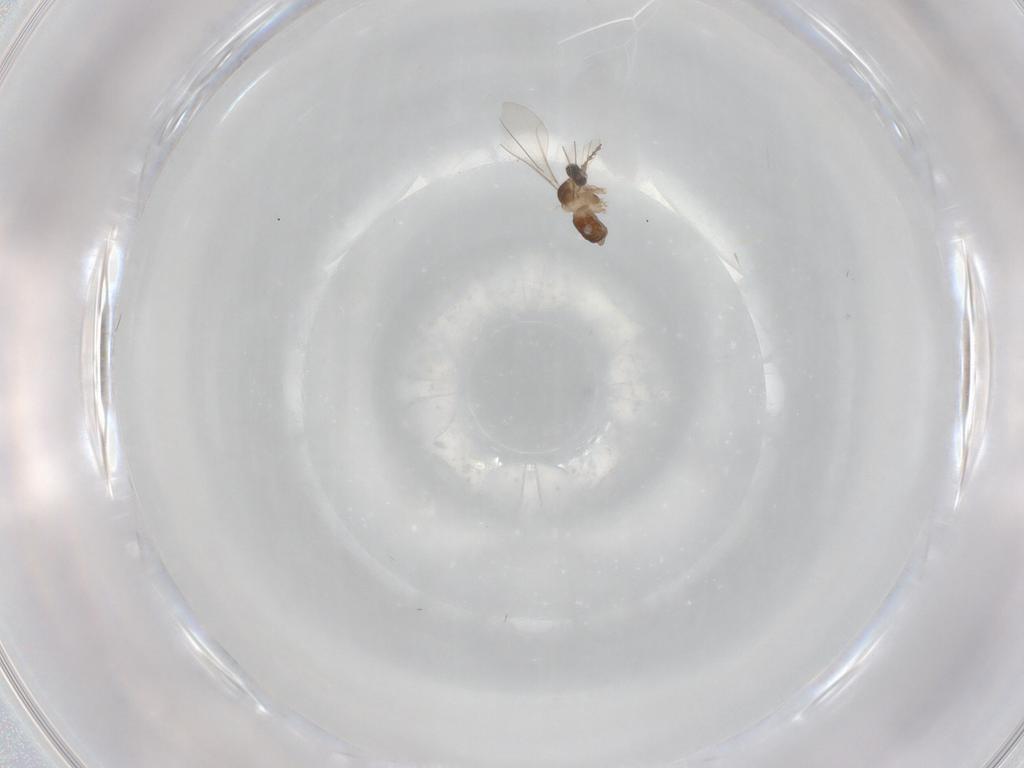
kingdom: Animalia
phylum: Arthropoda
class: Insecta
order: Diptera
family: Cecidomyiidae
